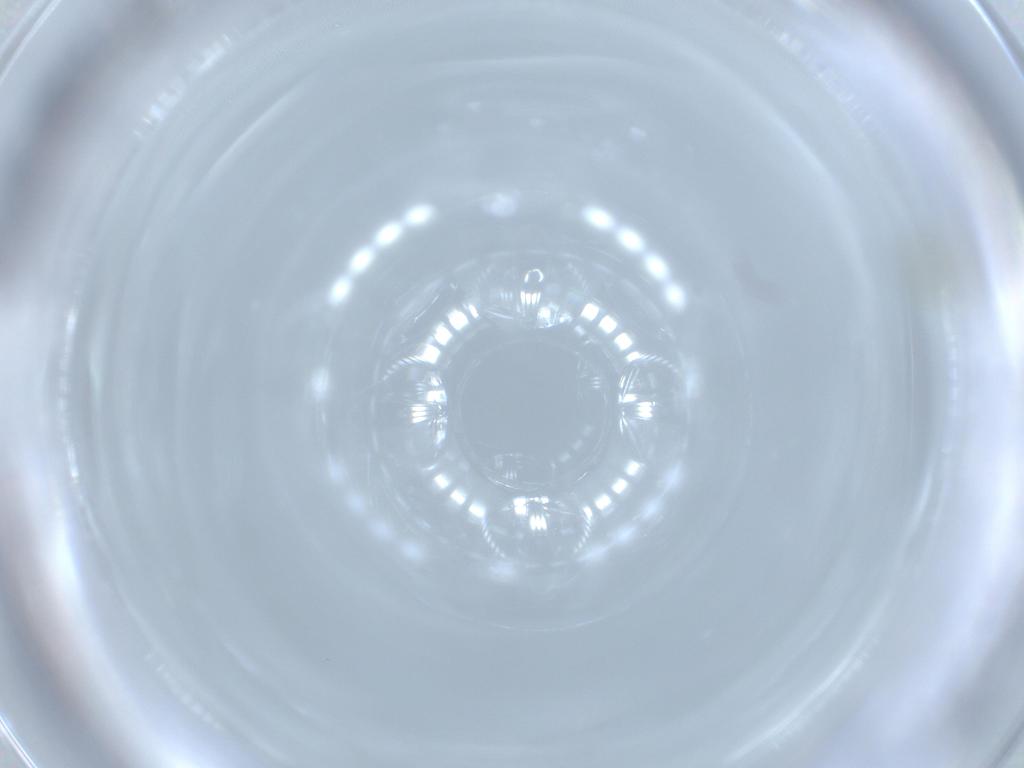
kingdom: Animalia
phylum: Arthropoda
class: Insecta
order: Hemiptera
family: Aleyrodidae
